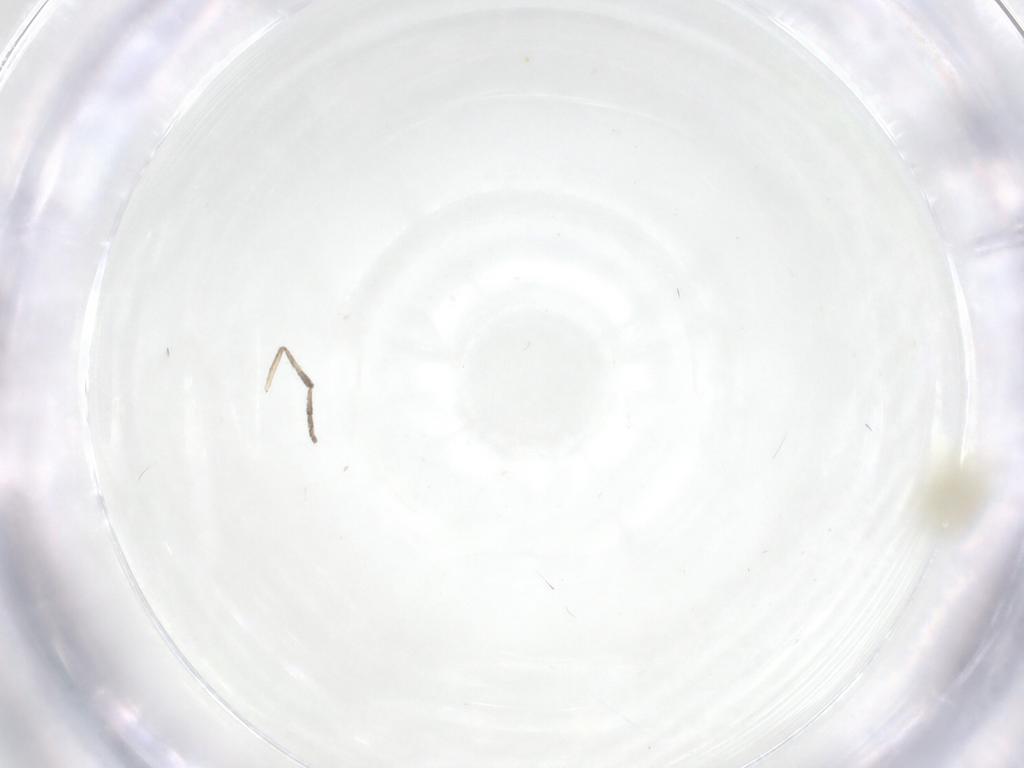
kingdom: Animalia
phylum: Arthropoda
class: Insecta
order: Diptera
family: Psychodidae
